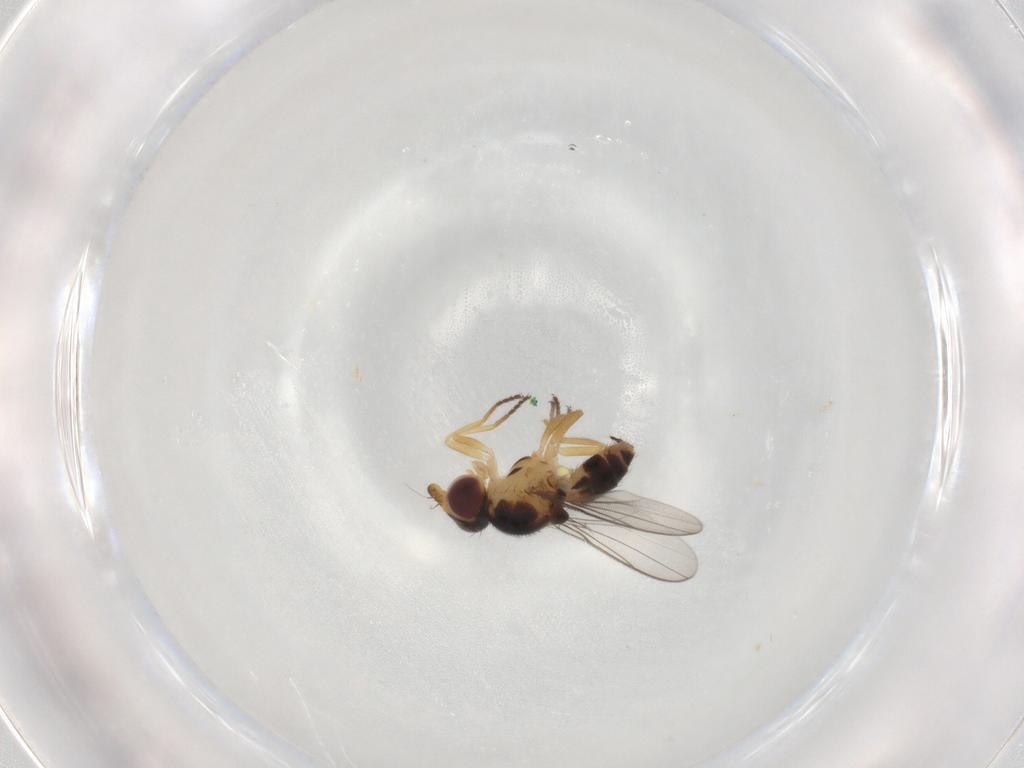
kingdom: Animalia
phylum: Arthropoda
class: Insecta
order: Diptera
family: Chloropidae
